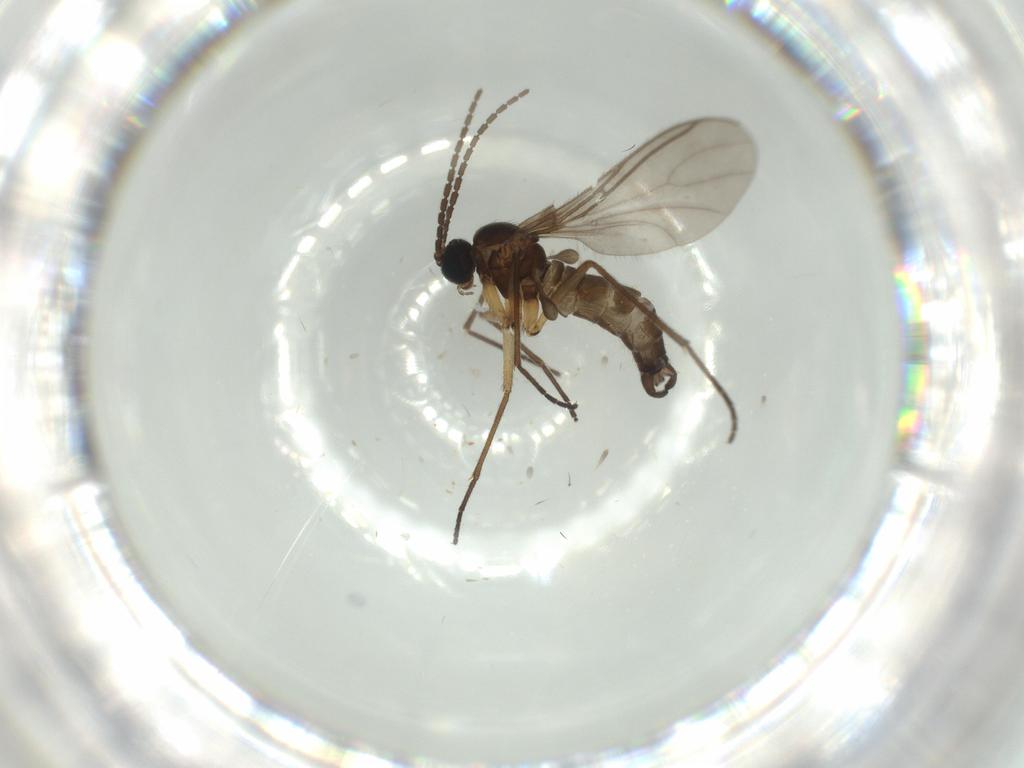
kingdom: Animalia
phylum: Arthropoda
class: Insecta
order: Diptera
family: Sciaridae
